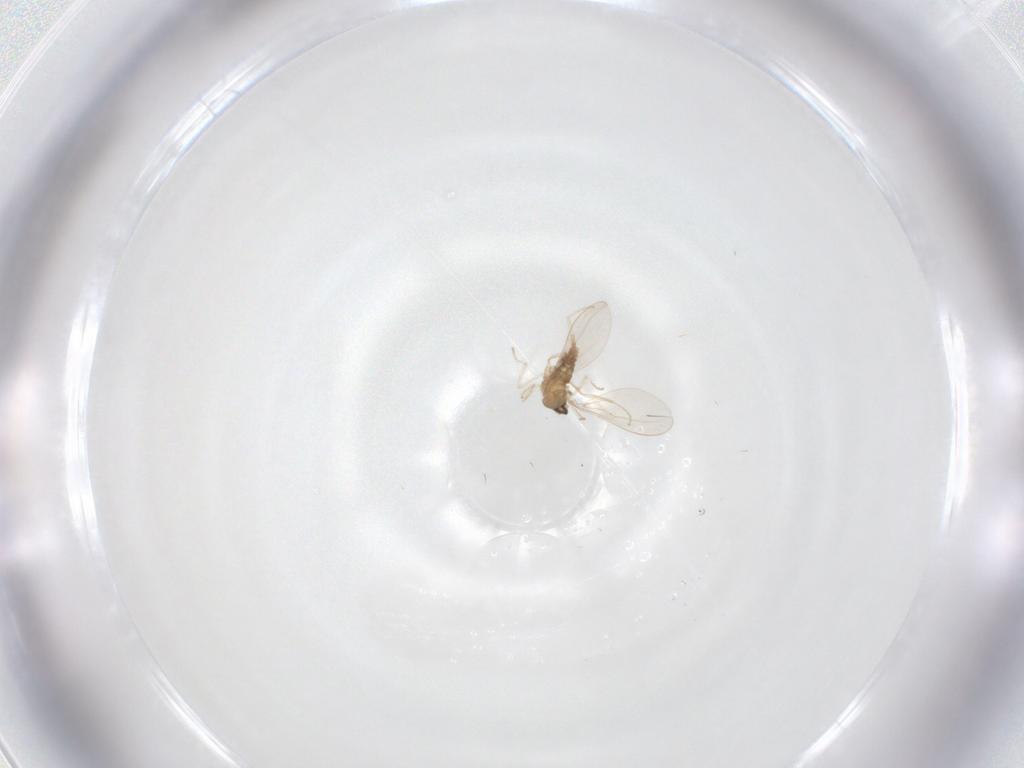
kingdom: Animalia
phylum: Arthropoda
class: Insecta
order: Diptera
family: Cecidomyiidae
